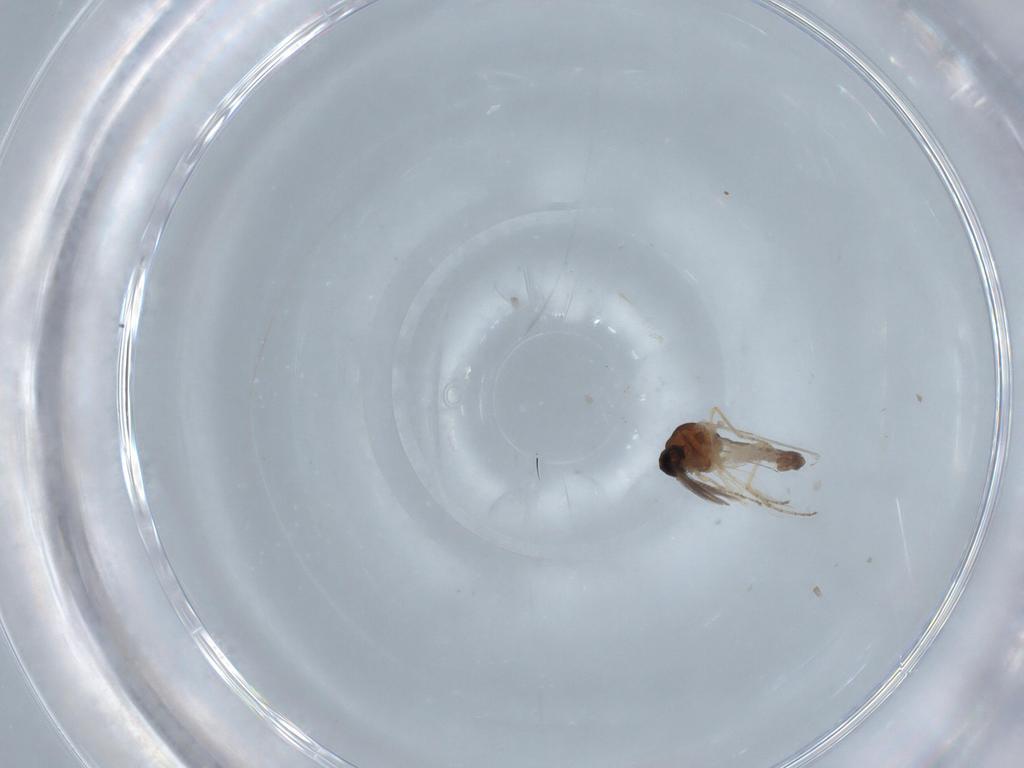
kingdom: Animalia
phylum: Arthropoda
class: Insecta
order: Diptera
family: Ceratopogonidae
